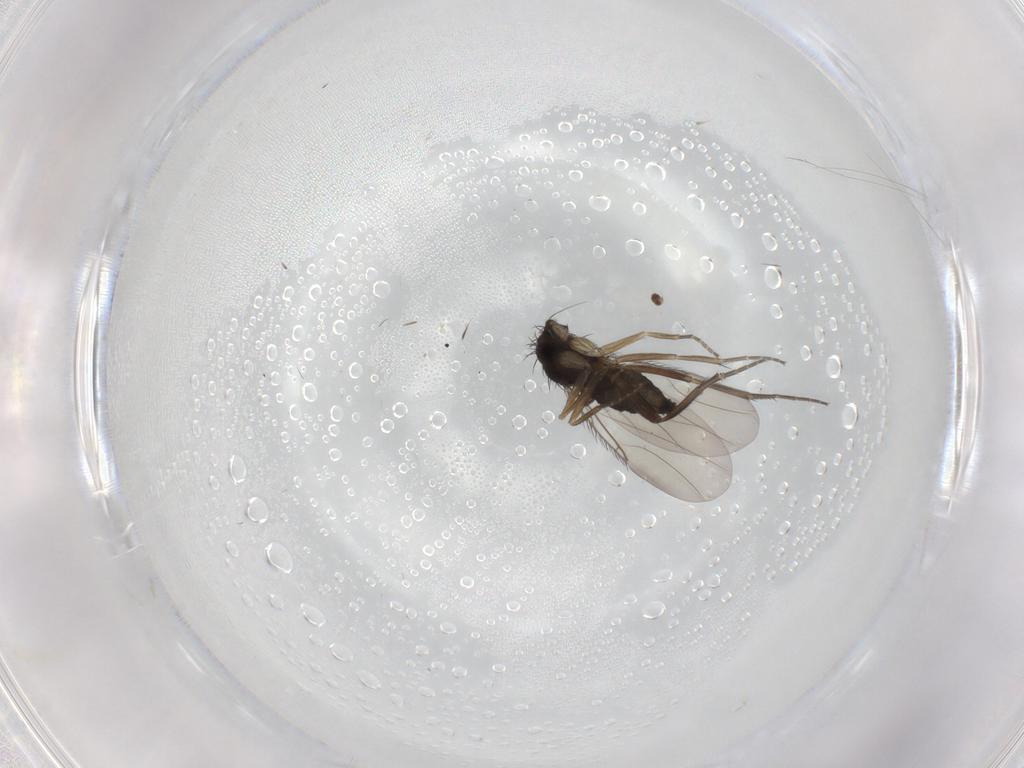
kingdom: Animalia
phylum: Arthropoda
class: Insecta
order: Diptera
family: Phoridae
